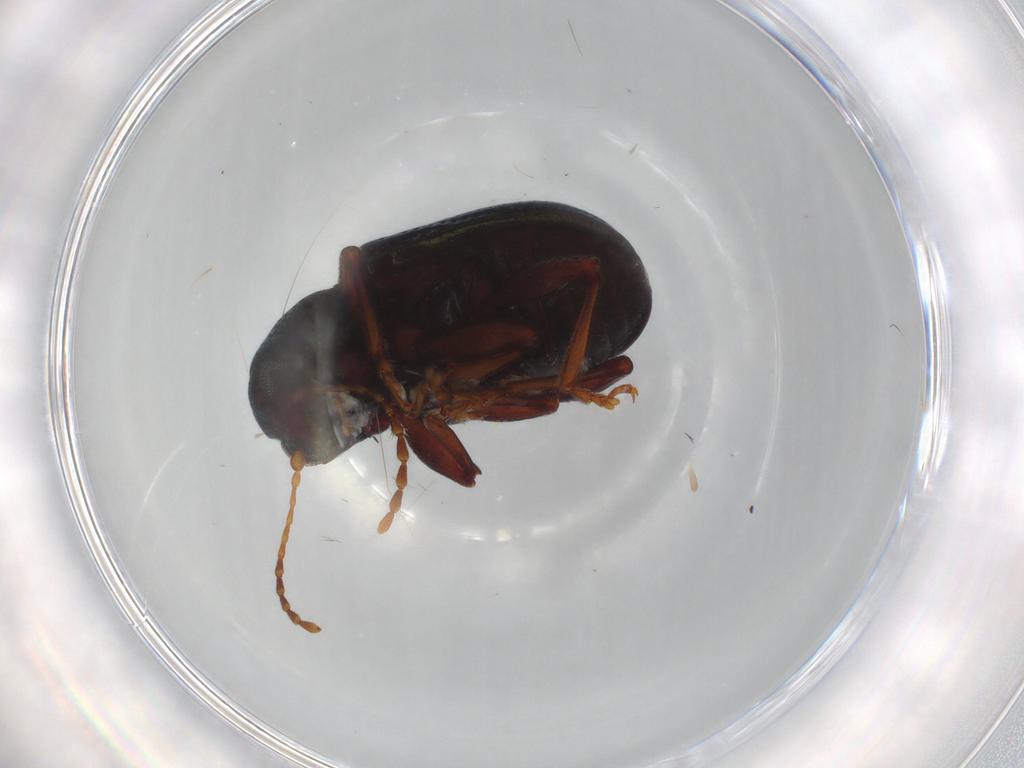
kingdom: Animalia
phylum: Arthropoda
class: Insecta
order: Coleoptera
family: Chrysomelidae
